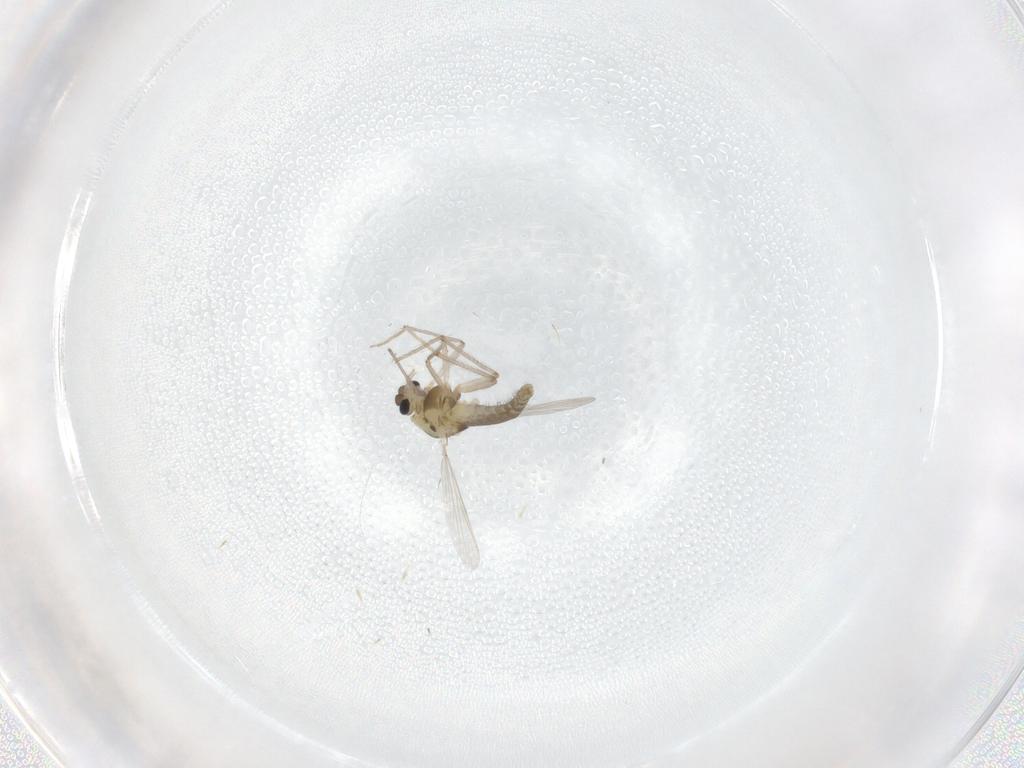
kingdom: Animalia
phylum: Arthropoda
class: Insecta
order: Diptera
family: Chironomidae
